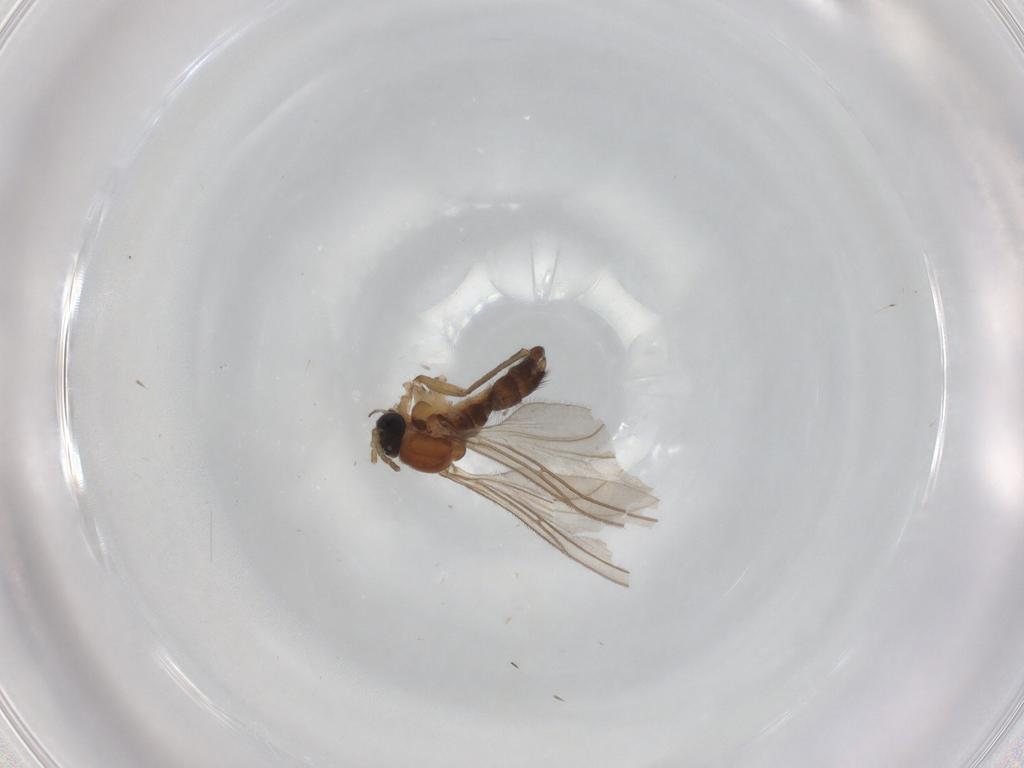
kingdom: Animalia
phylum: Arthropoda
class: Insecta
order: Diptera
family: Sciaridae
